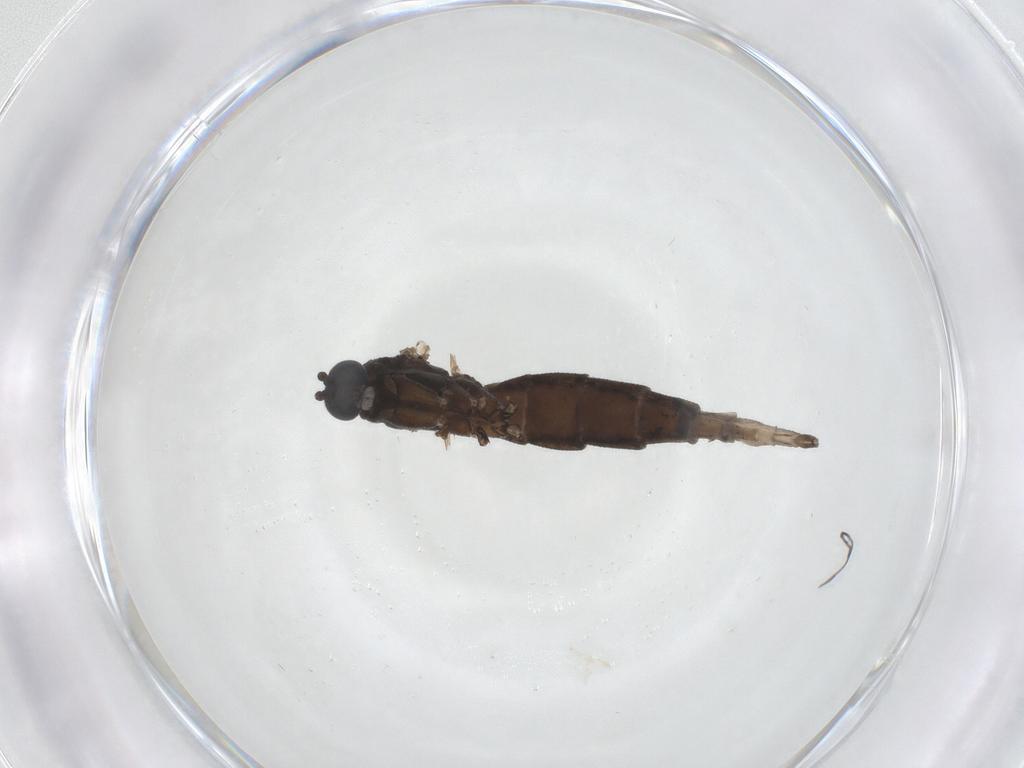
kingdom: Animalia
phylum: Arthropoda
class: Insecta
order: Diptera
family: Sciaridae
